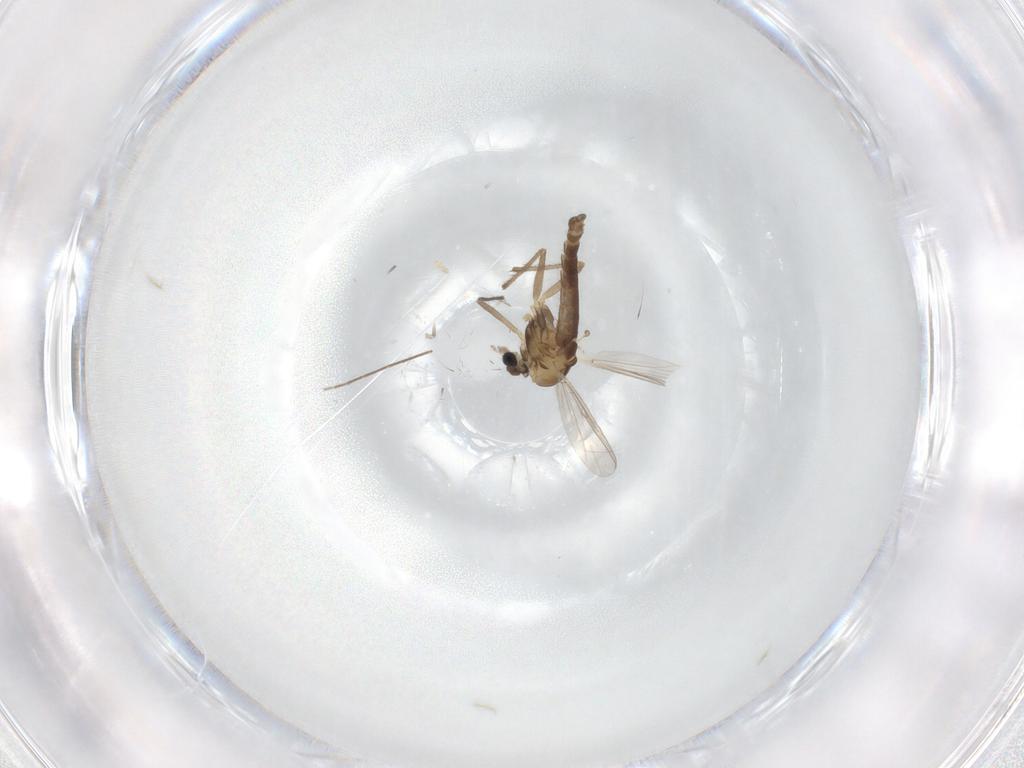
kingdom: Animalia
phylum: Arthropoda
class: Insecta
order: Diptera
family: Chironomidae
